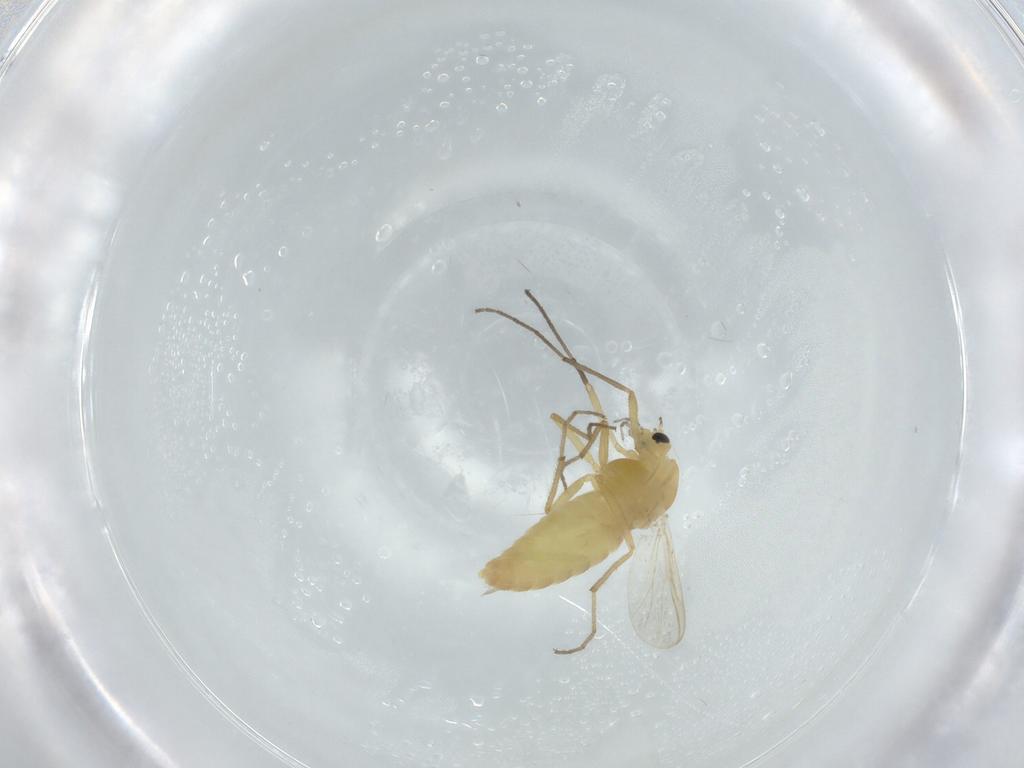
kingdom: Animalia
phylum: Arthropoda
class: Insecta
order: Diptera
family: Chironomidae
